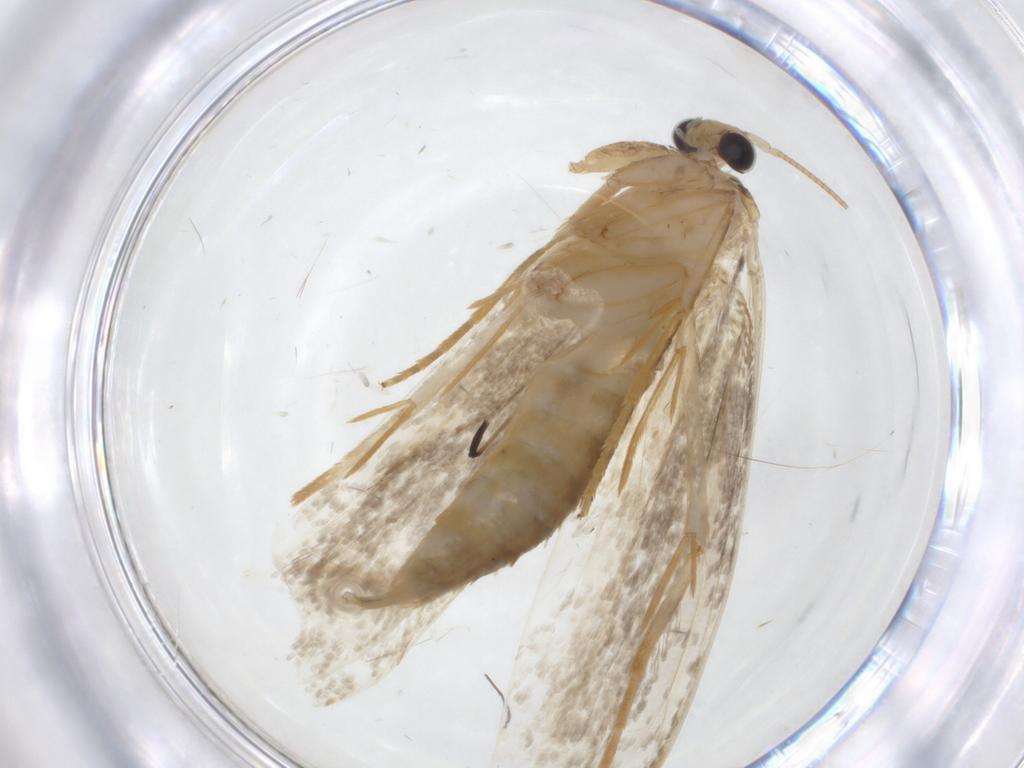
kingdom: Animalia
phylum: Arthropoda
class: Insecta
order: Lepidoptera
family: Tineidae
